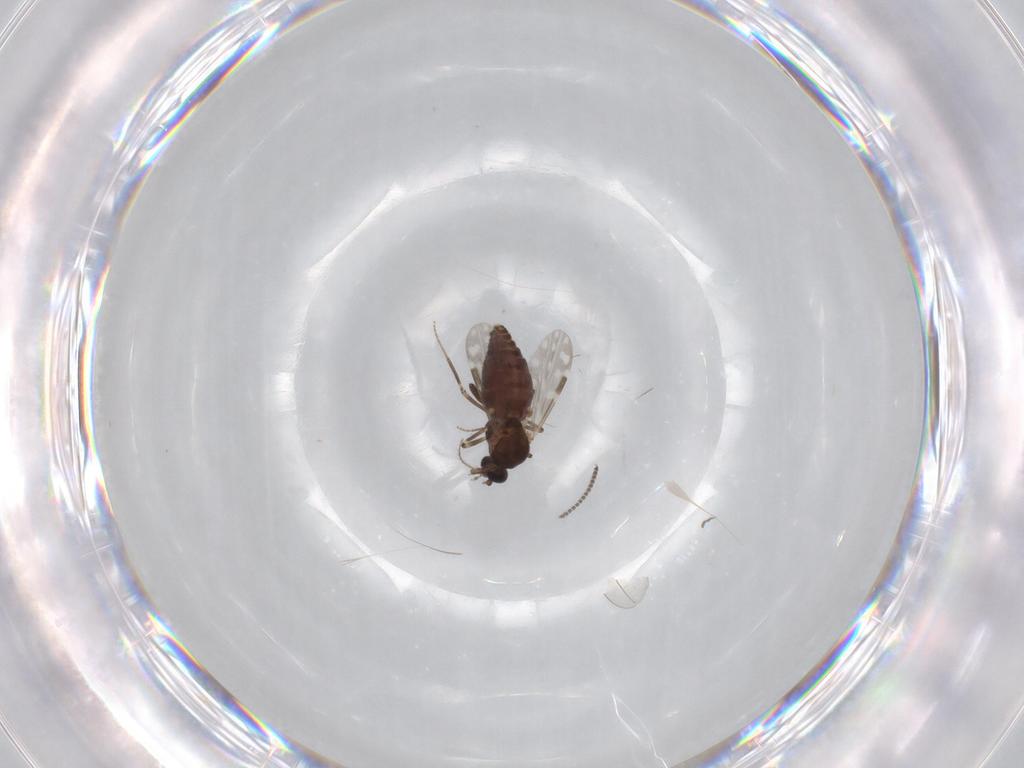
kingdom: Animalia
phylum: Arthropoda
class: Insecta
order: Diptera
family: Ceratopogonidae
